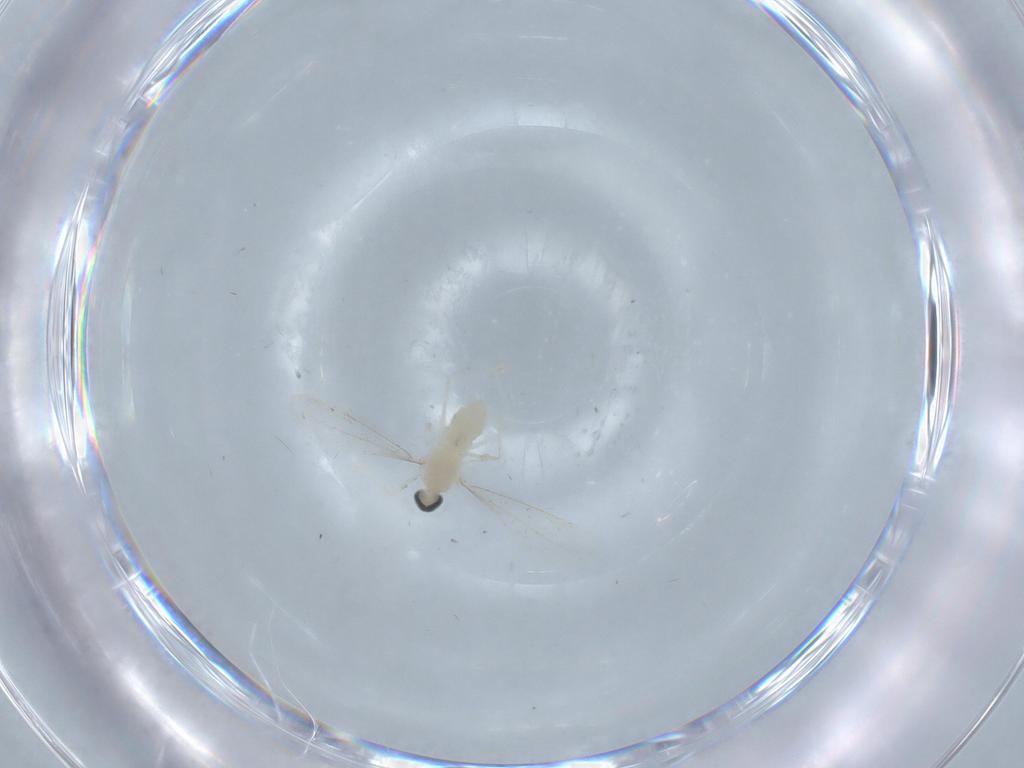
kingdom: Animalia
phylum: Arthropoda
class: Insecta
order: Diptera
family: Cecidomyiidae
